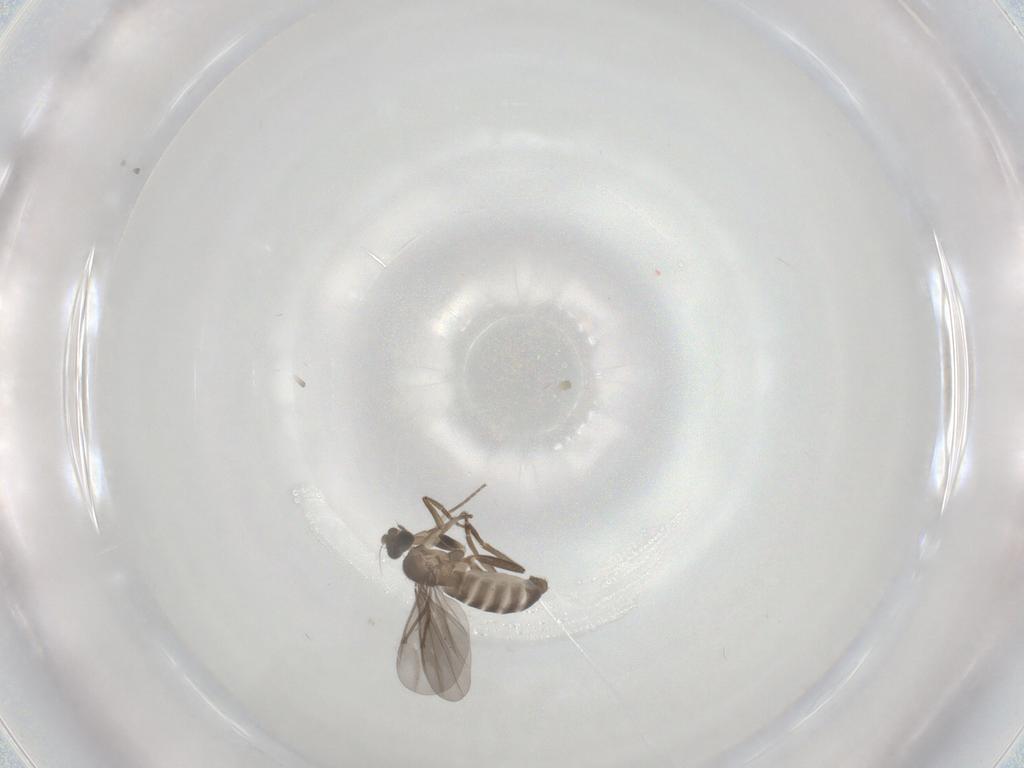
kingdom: Animalia
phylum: Arthropoda
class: Insecta
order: Diptera
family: Phoridae
